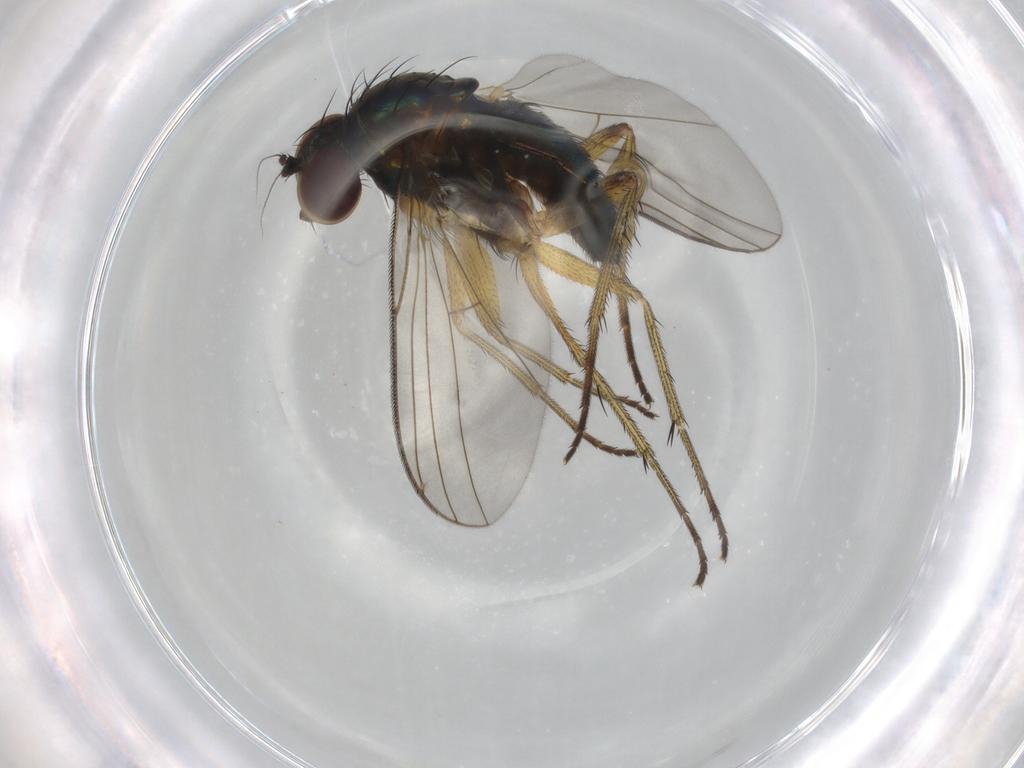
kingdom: Animalia
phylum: Arthropoda
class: Insecta
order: Diptera
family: Dolichopodidae
